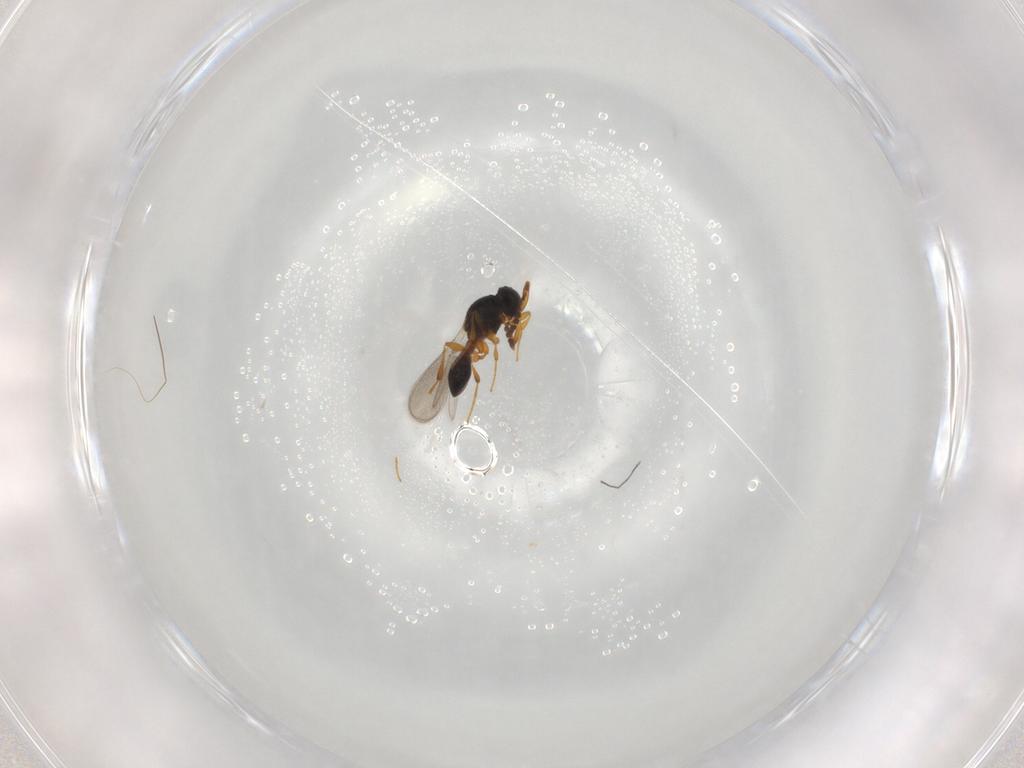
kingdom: Animalia
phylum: Arthropoda
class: Insecta
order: Hymenoptera
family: Platygastridae
